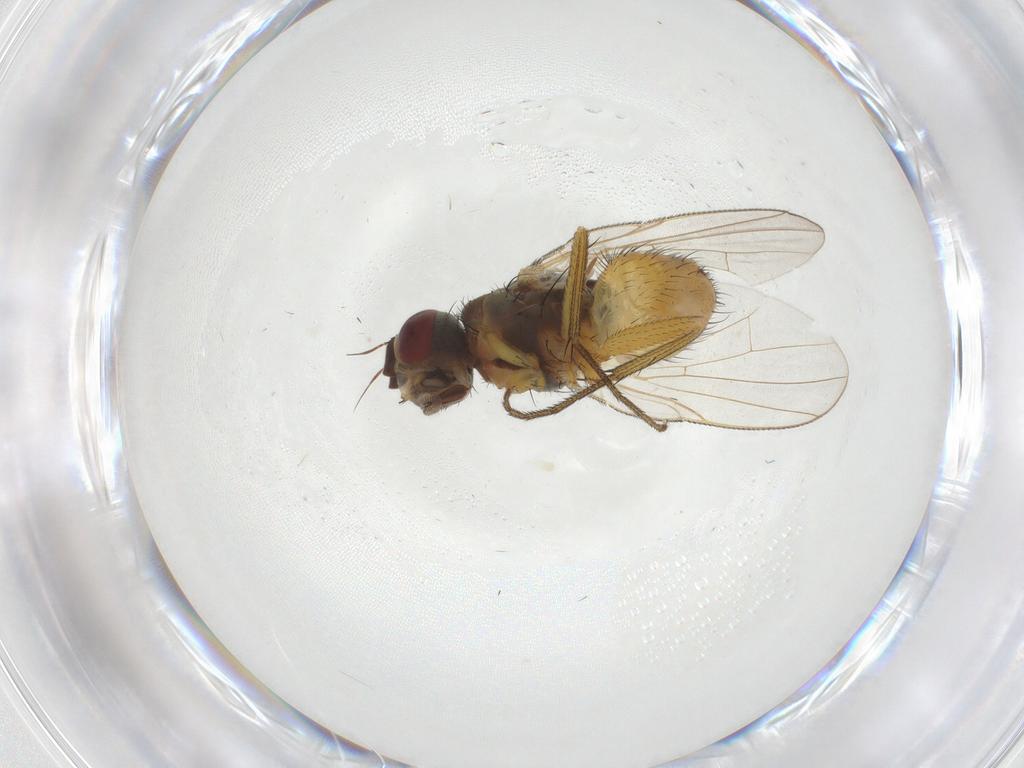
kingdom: Animalia
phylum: Arthropoda
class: Insecta
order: Diptera
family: Muscidae
